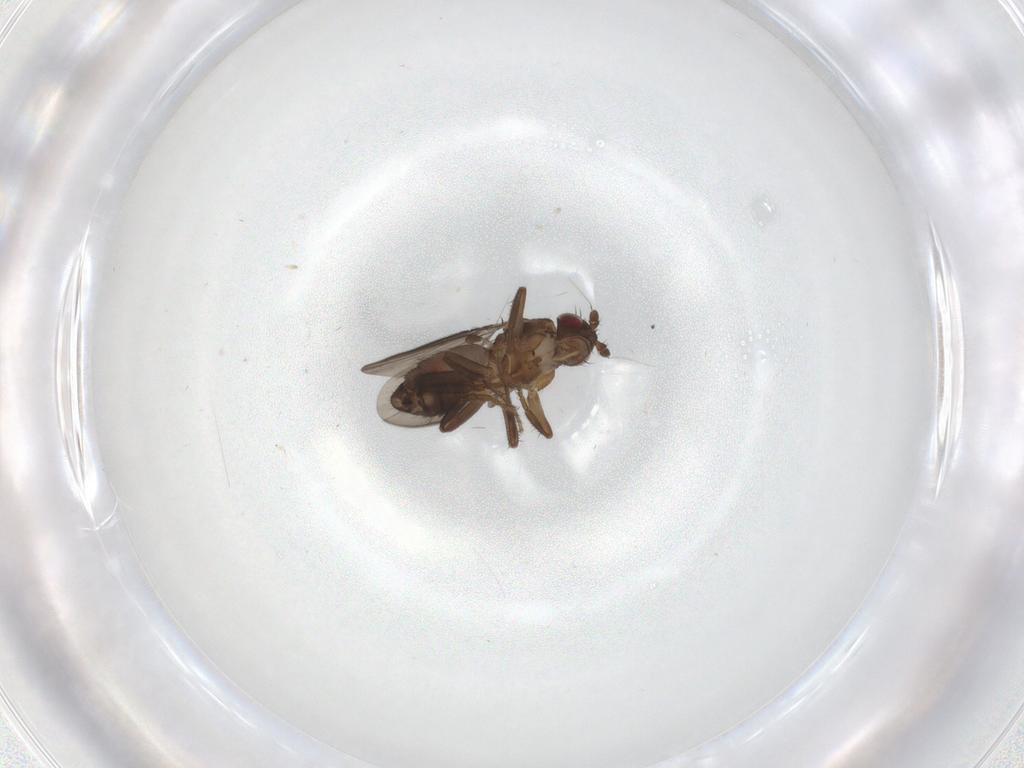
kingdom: Animalia
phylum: Arthropoda
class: Insecta
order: Diptera
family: Sphaeroceridae
